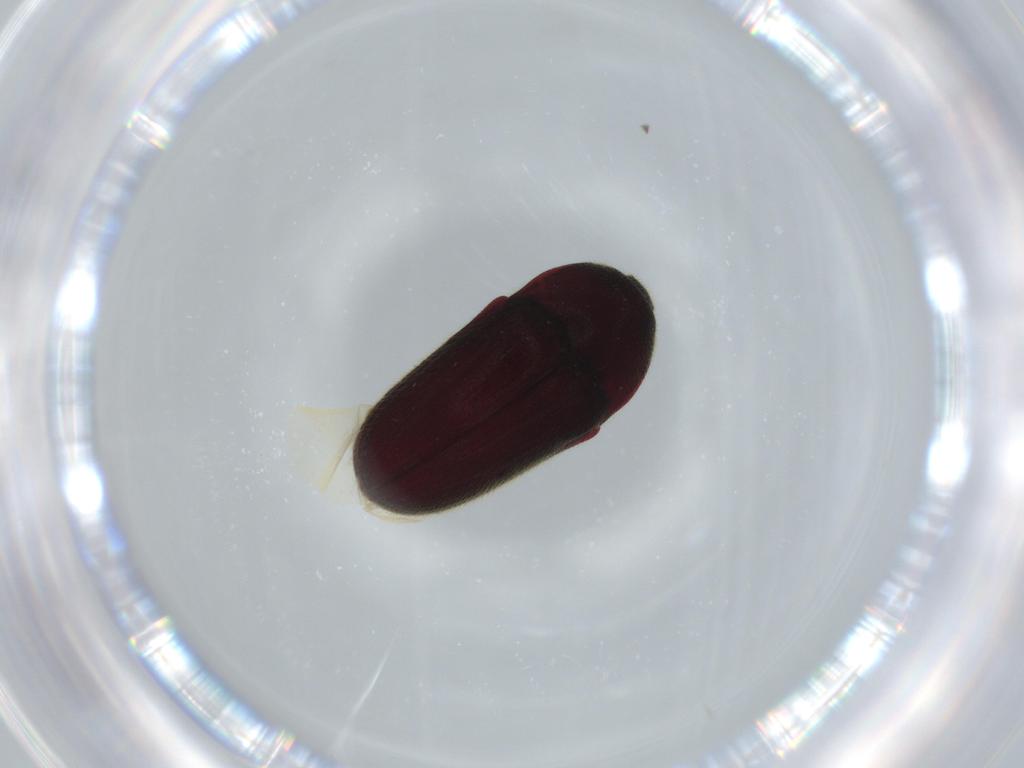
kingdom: Animalia
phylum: Arthropoda
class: Insecta
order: Coleoptera
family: Throscidae
